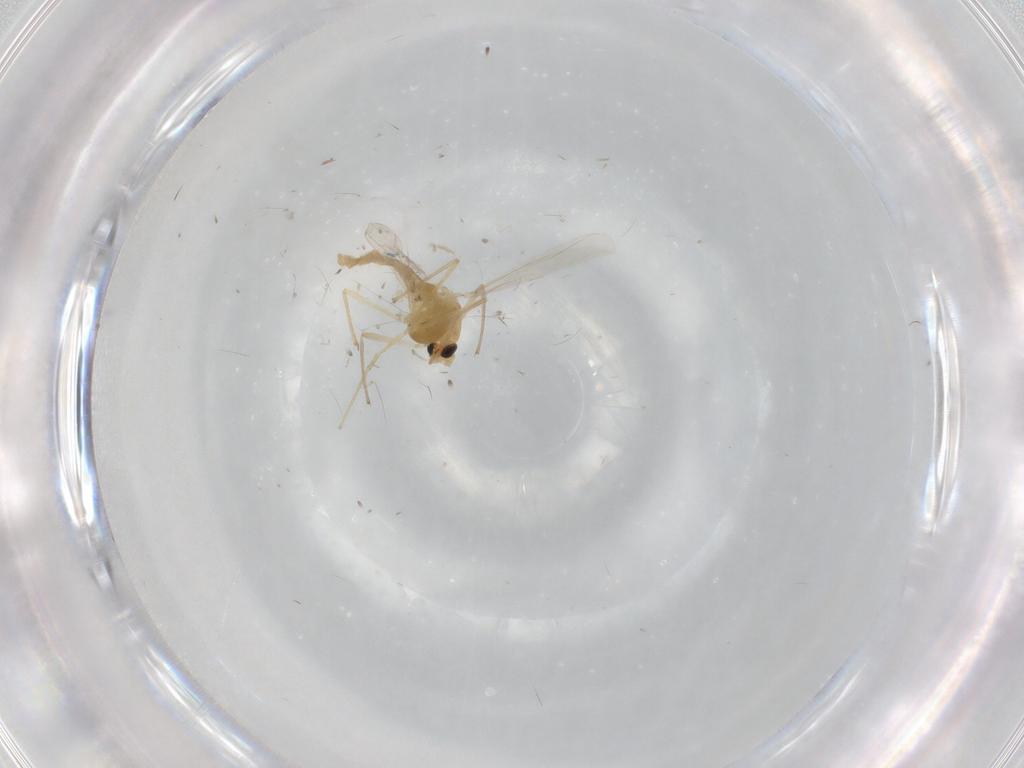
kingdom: Animalia
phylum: Arthropoda
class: Insecta
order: Diptera
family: Chironomidae
